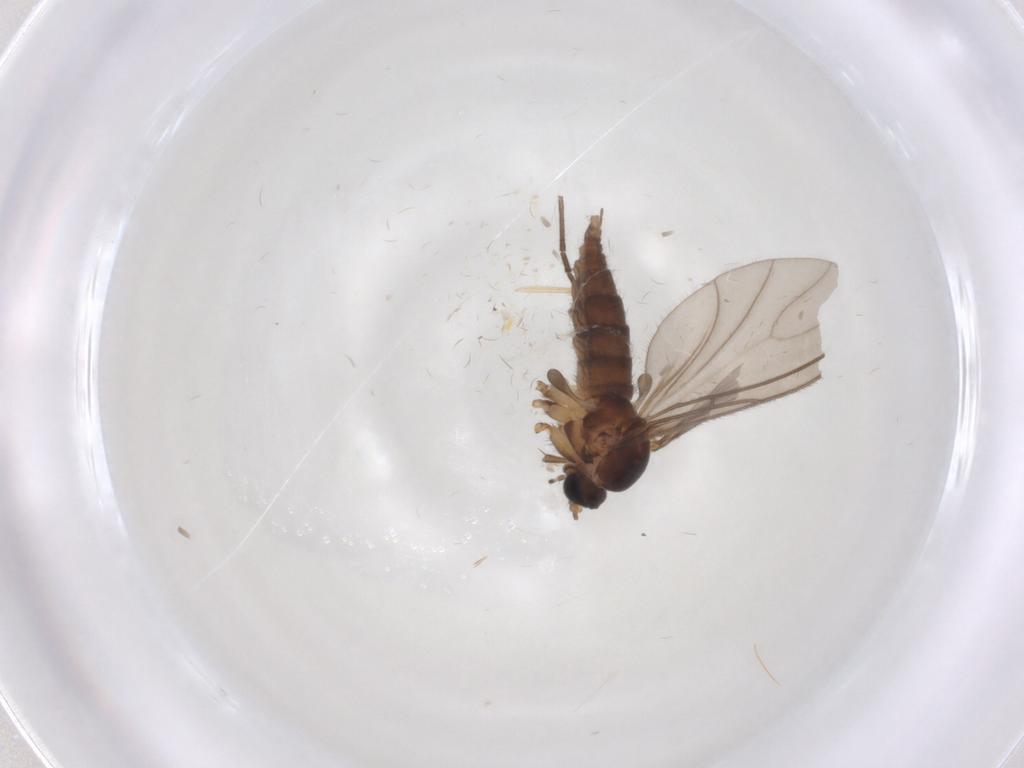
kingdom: Animalia
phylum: Arthropoda
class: Insecta
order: Diptera
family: Sciaridae
